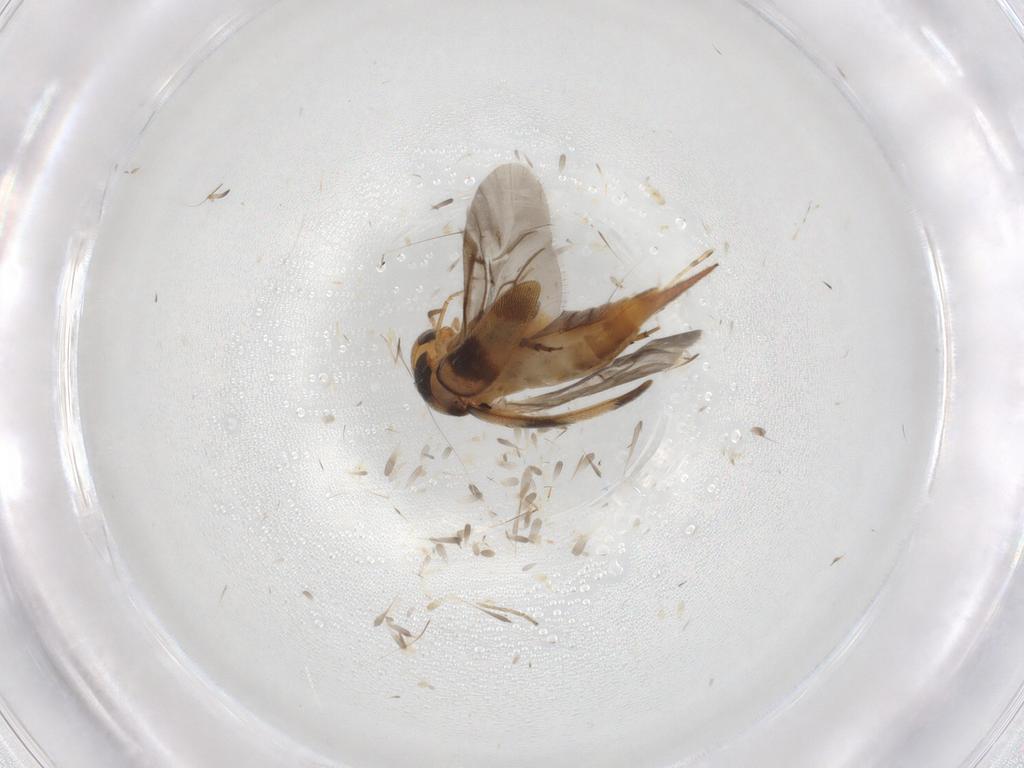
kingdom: Animalia
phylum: Arthropoda
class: Insecta
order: Coleoptera
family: Mordellidae
